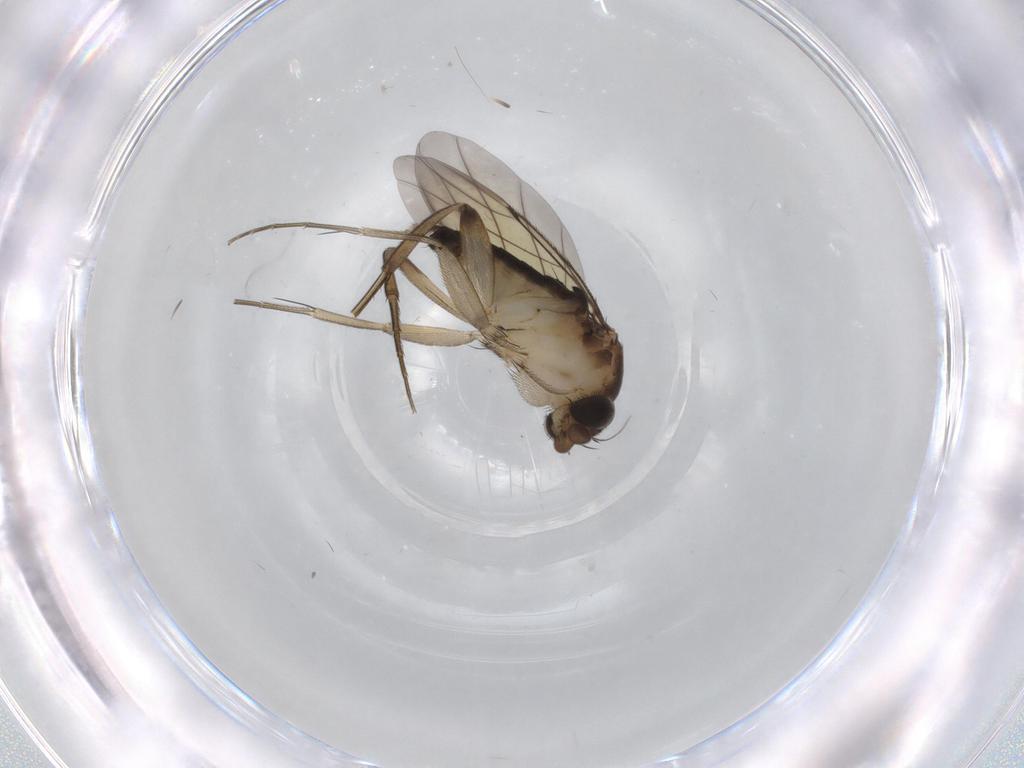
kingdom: Animalia
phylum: Arthropoda
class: Insecta
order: Diptera
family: Phoridae
